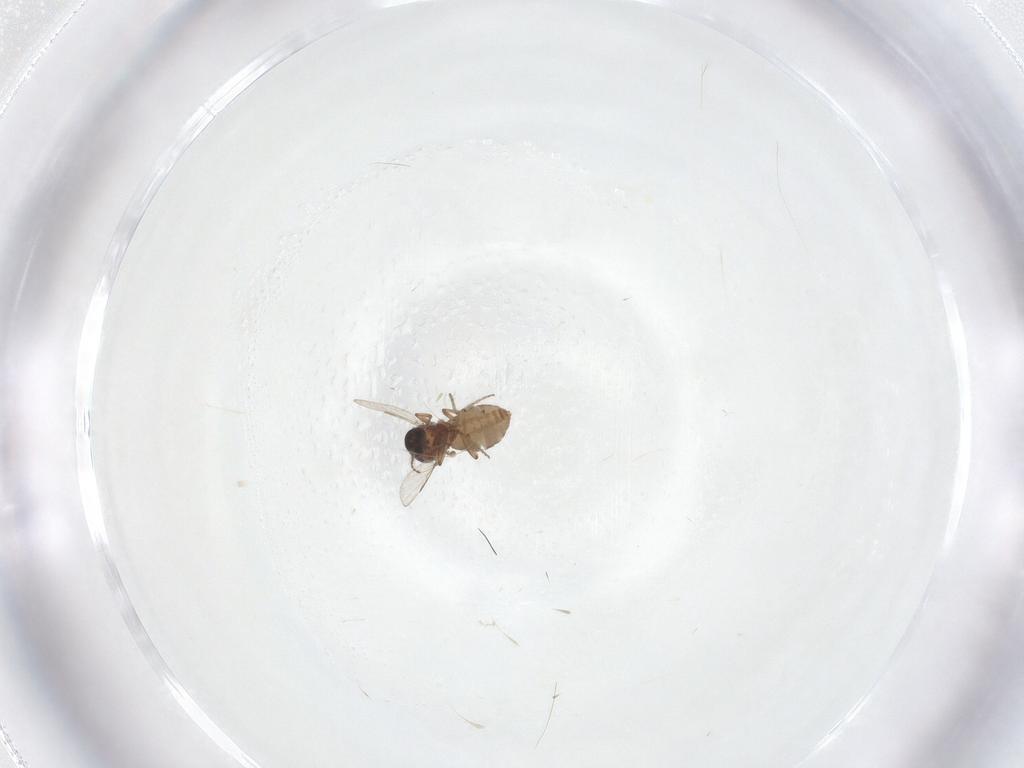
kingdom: Animalia
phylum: Arthropoda
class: Insecta
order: Diptera
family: Ceratopogonidae
